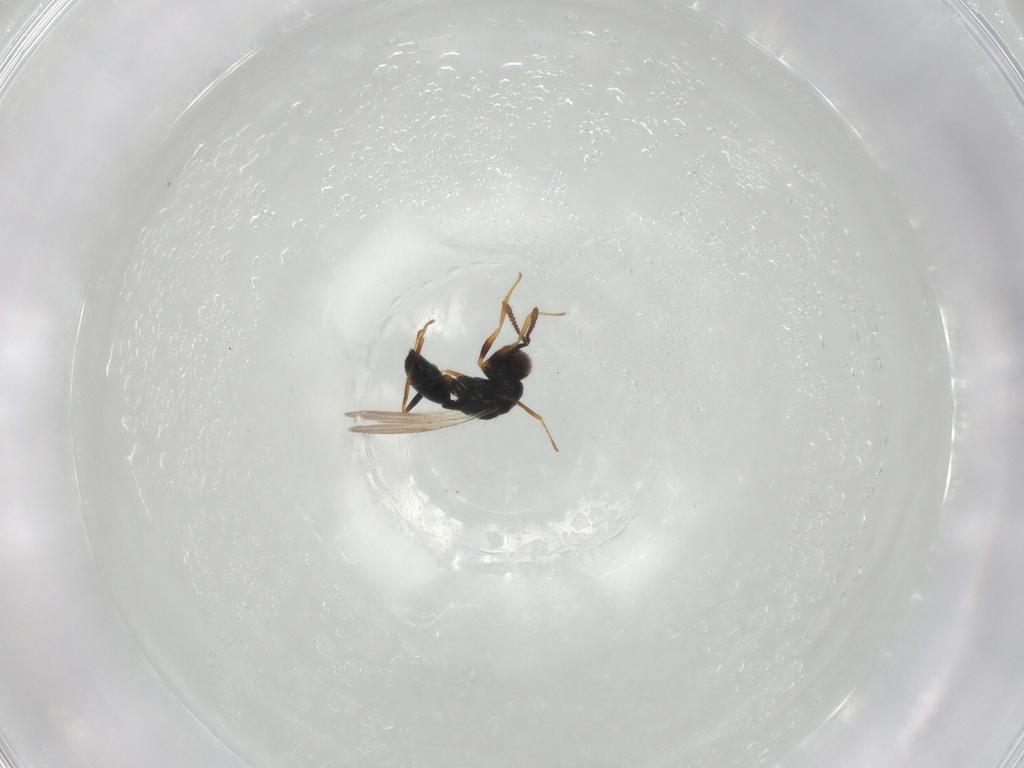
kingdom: Animalia
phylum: Arthropoda
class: Insecta
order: Hymenoptera
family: Chalcidoidea_incertae_sedis
